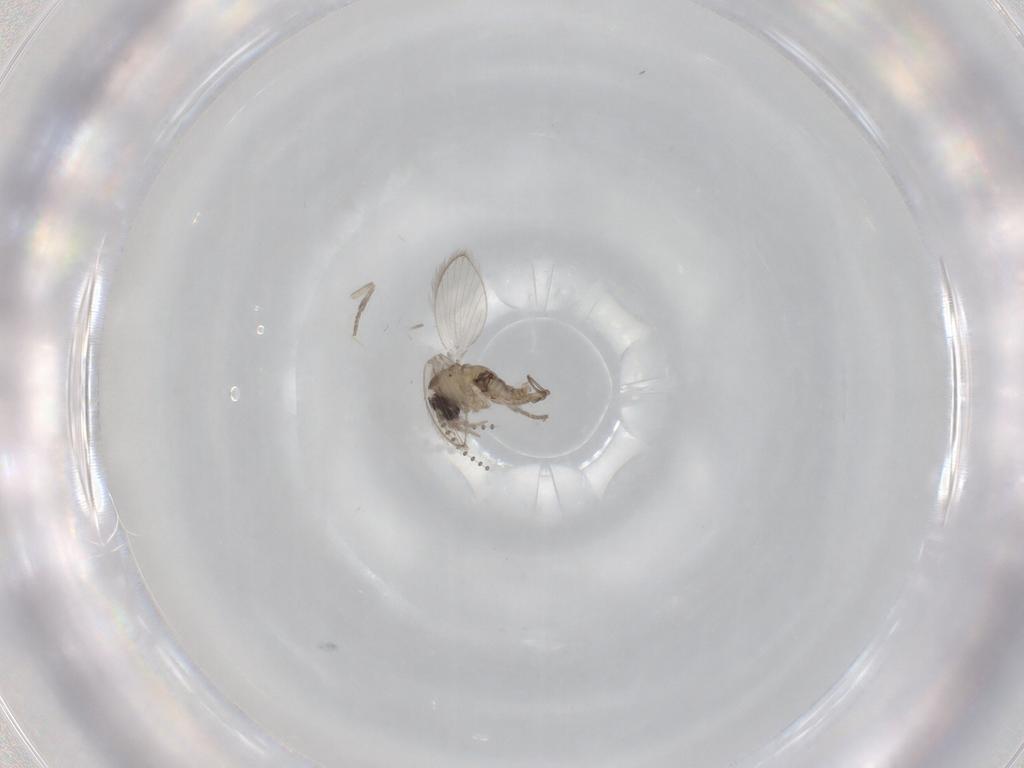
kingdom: Animalia
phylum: Arthropoda
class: Insecta
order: Diptera
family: Psychodidae
